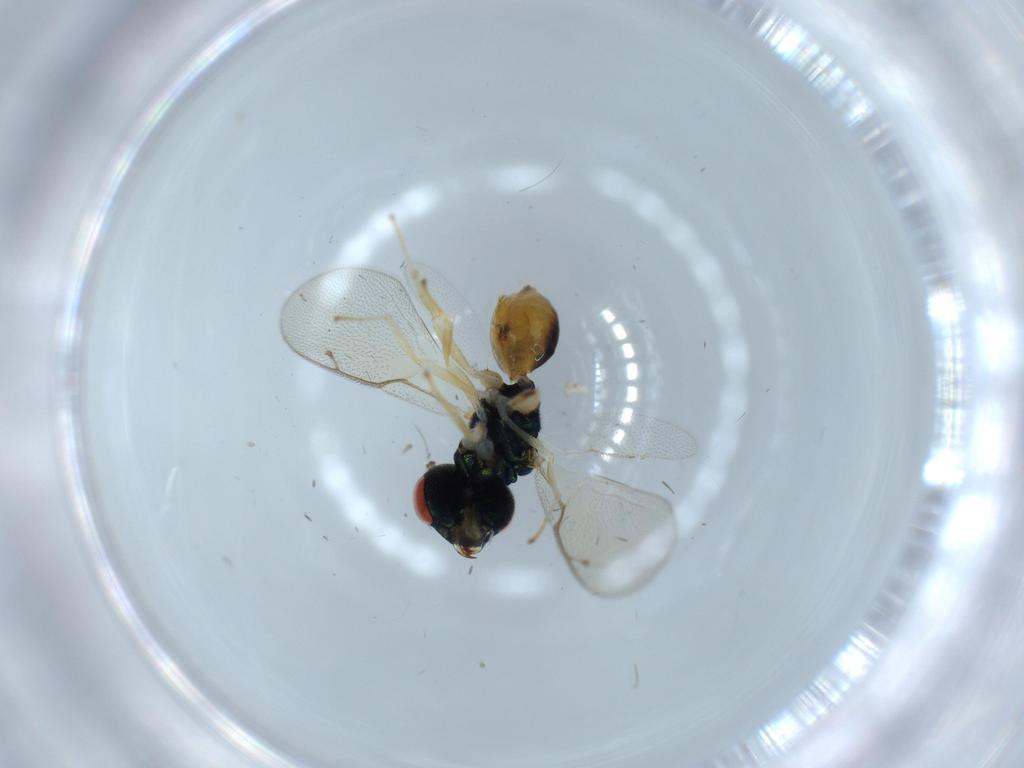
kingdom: Animalia
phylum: Arthropoda
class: Insecta
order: Hymenoptera
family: Pteromalidae
